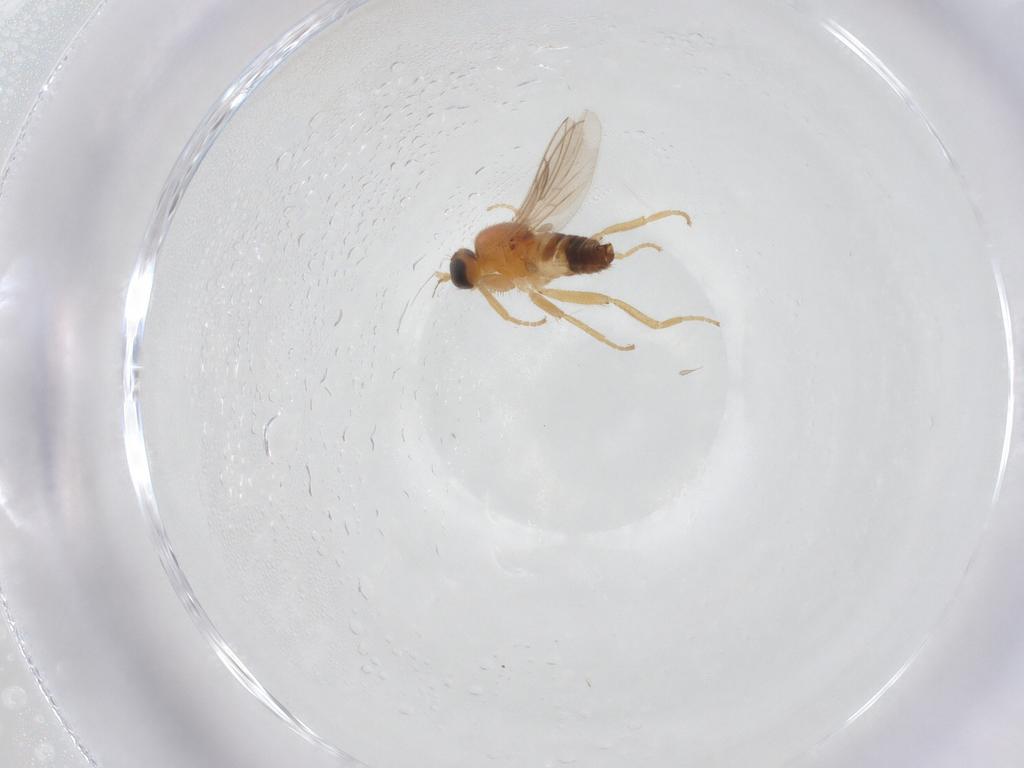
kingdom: Animalia
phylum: Arthropoda
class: Insecta
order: Diptera
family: Hybotidae
